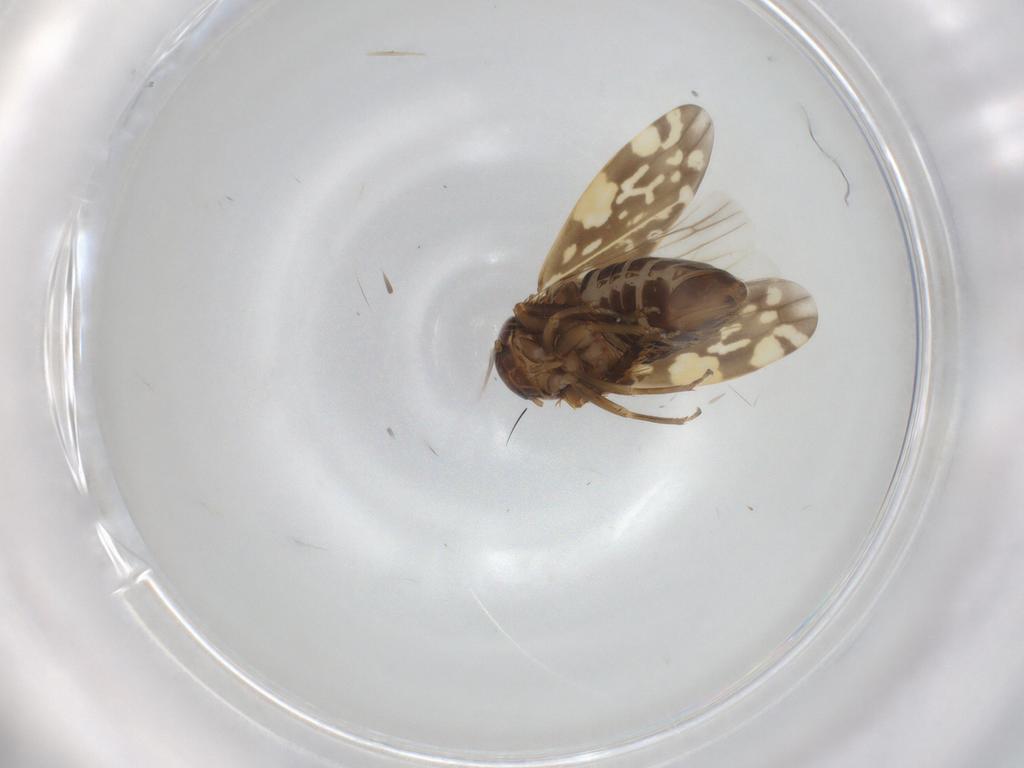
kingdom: Animalia
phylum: Arthropoda
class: Insecta
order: Hemiptera
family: Cicadellidae
